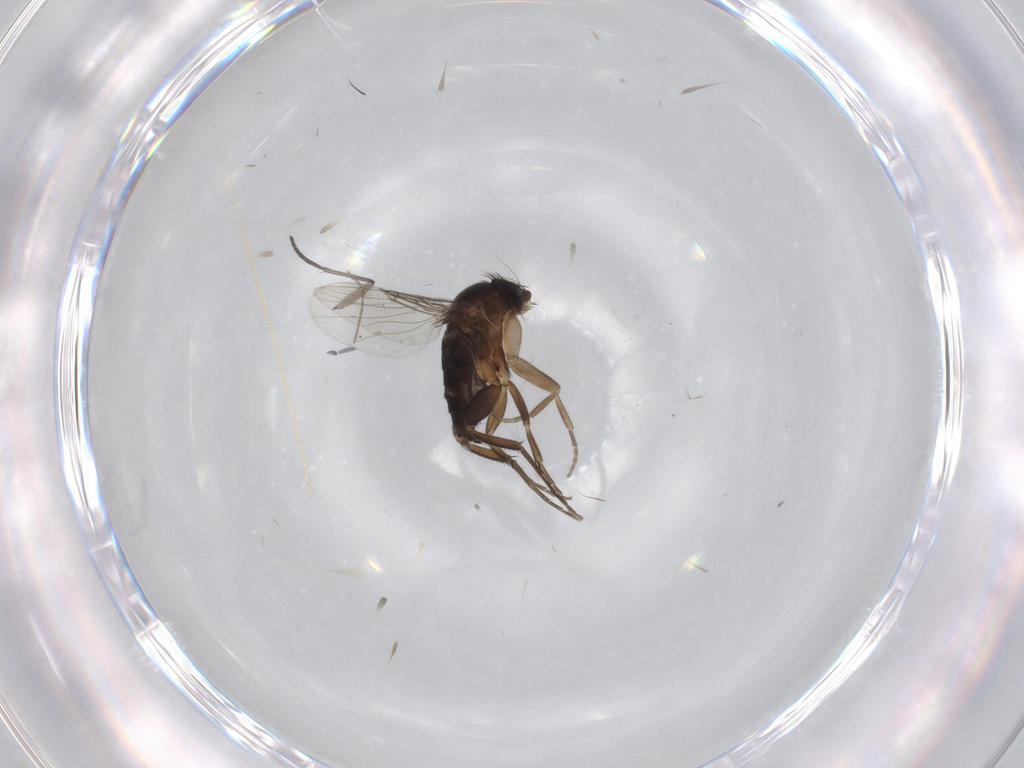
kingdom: Animalia
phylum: Arthropoda
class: Insecta
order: Diptera
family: Phoridae
